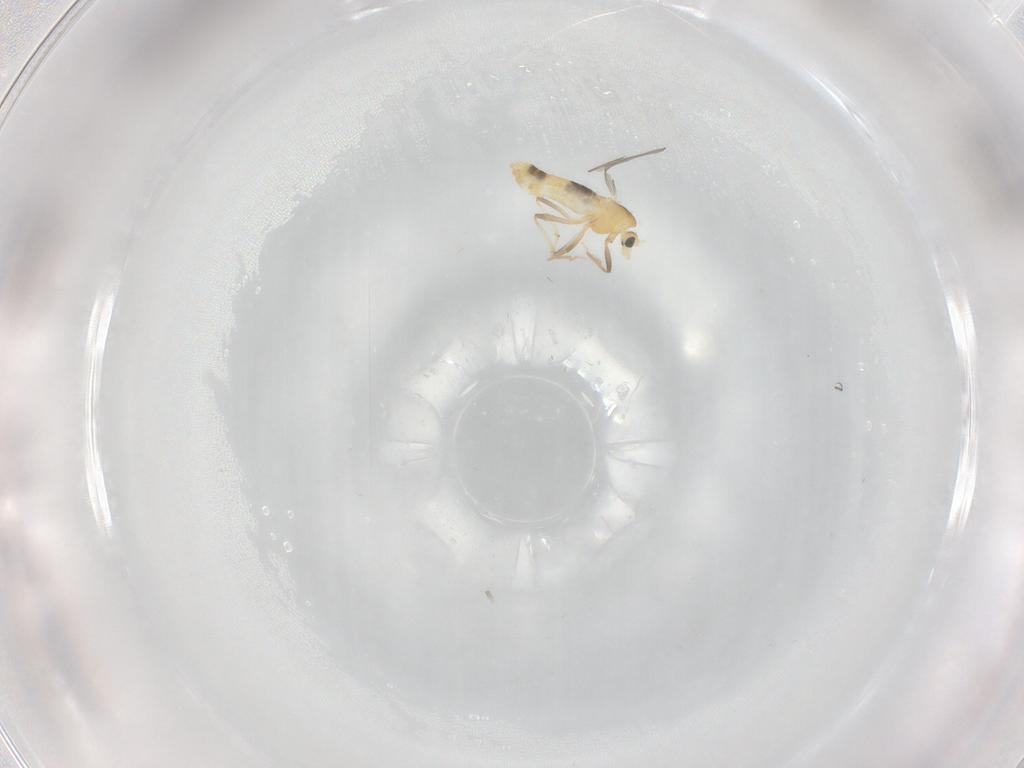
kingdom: Animalia
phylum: Arthropoda
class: Insecta
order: Diptera
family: Chironomidae
